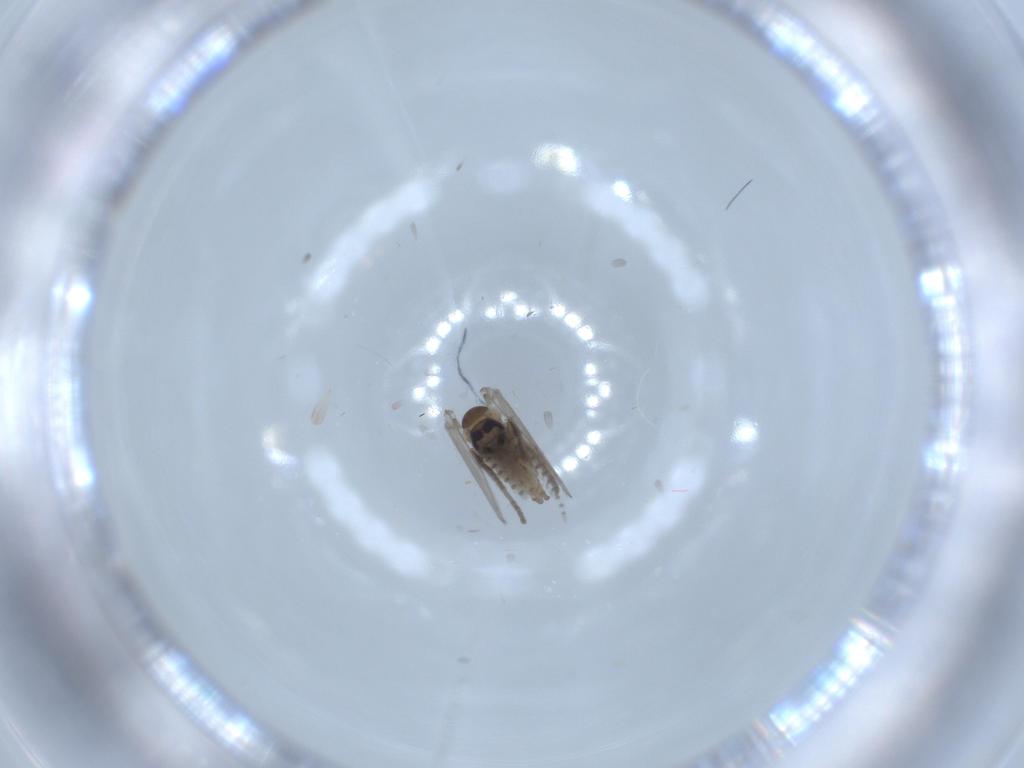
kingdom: Animalia
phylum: Arthropoda
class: Insecta
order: Diptera
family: Psychodidae
